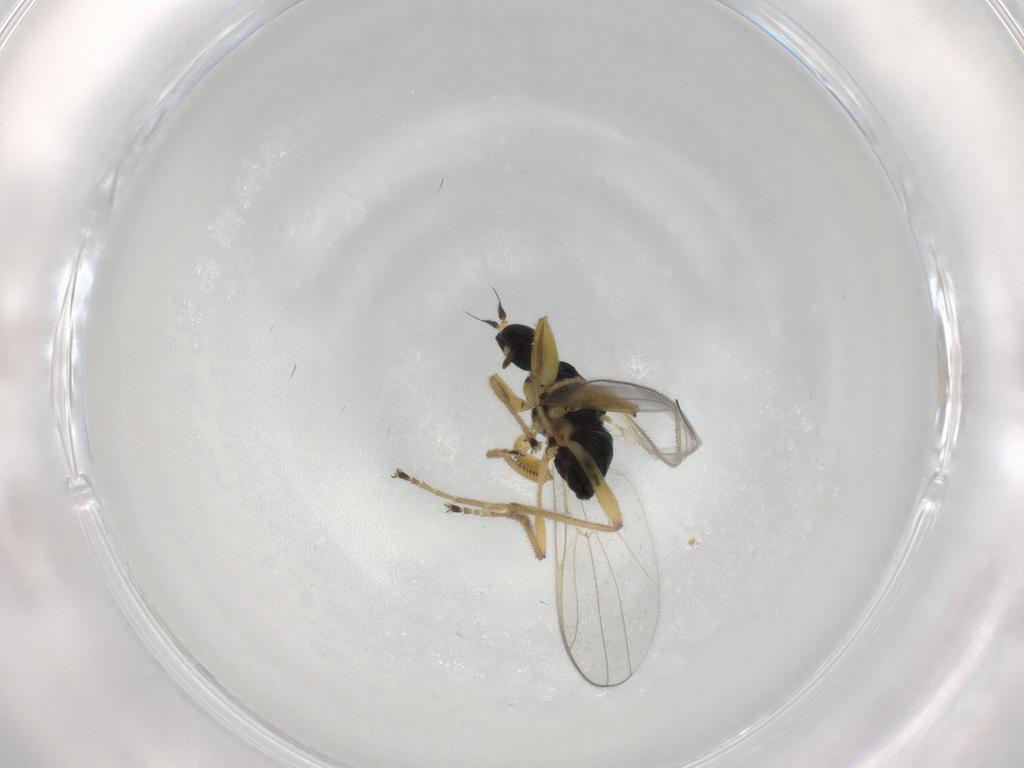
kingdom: Animalia
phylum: Arthropoda
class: Insecta
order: Diptera
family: Hybotidae
